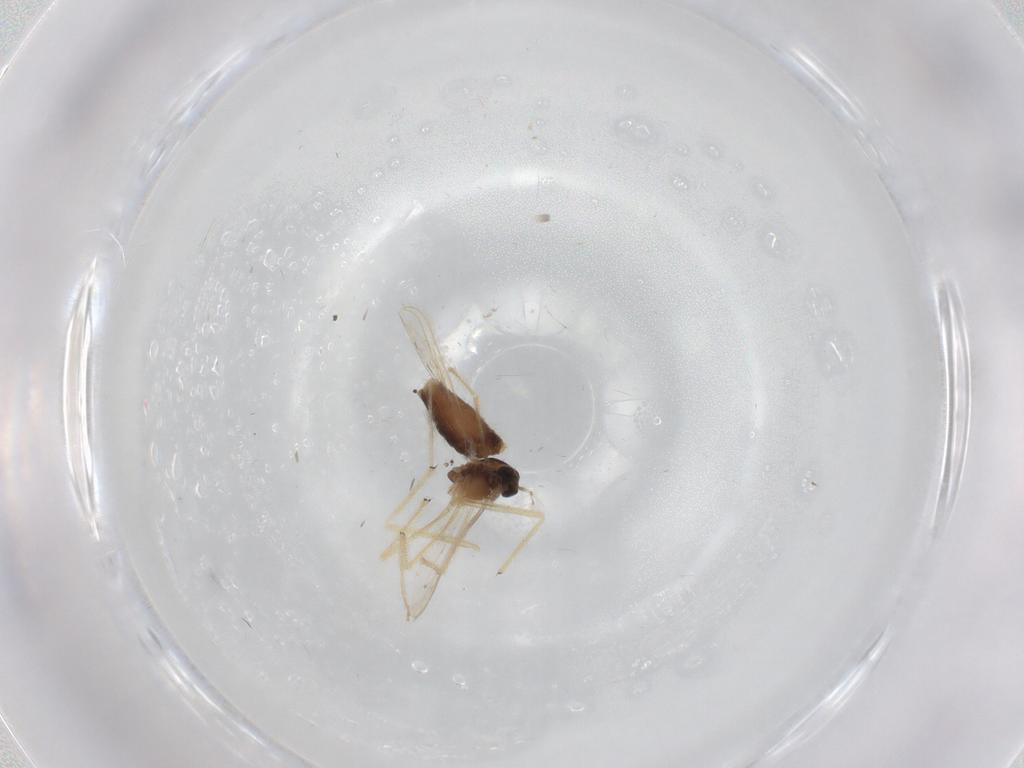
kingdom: Animalia
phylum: Arthropoda
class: Insecta
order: Diptera
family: Chironomidae
